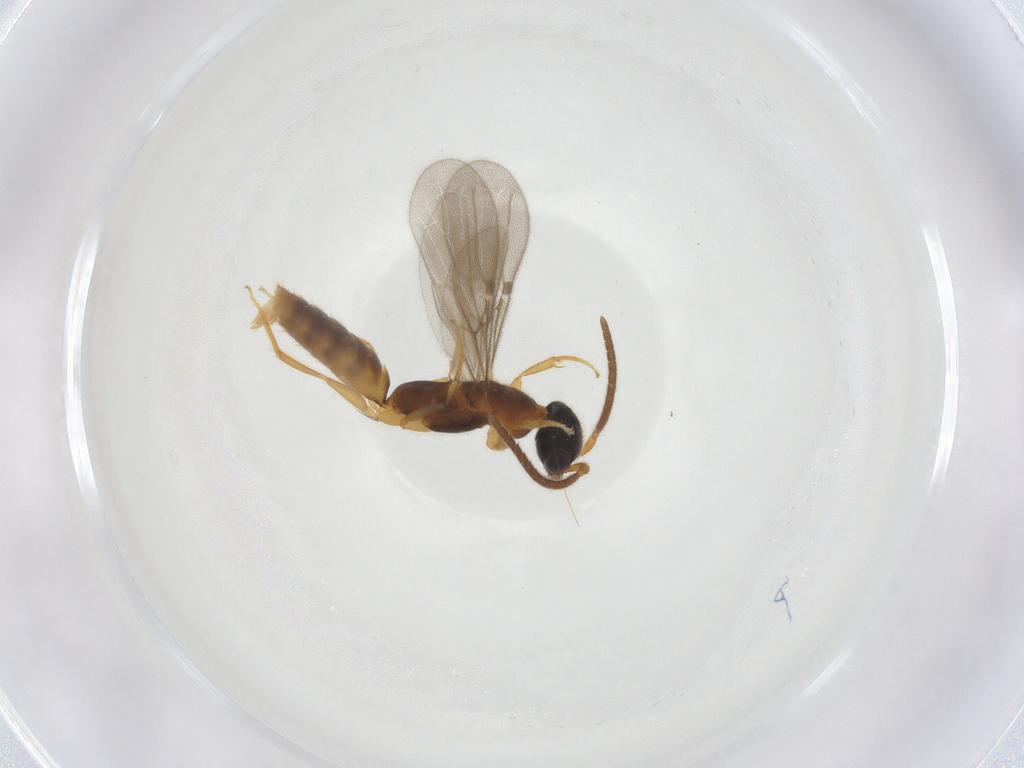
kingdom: Animalia
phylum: Arthropoda
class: Insecta
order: Hymenoptera
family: Bethylidae
